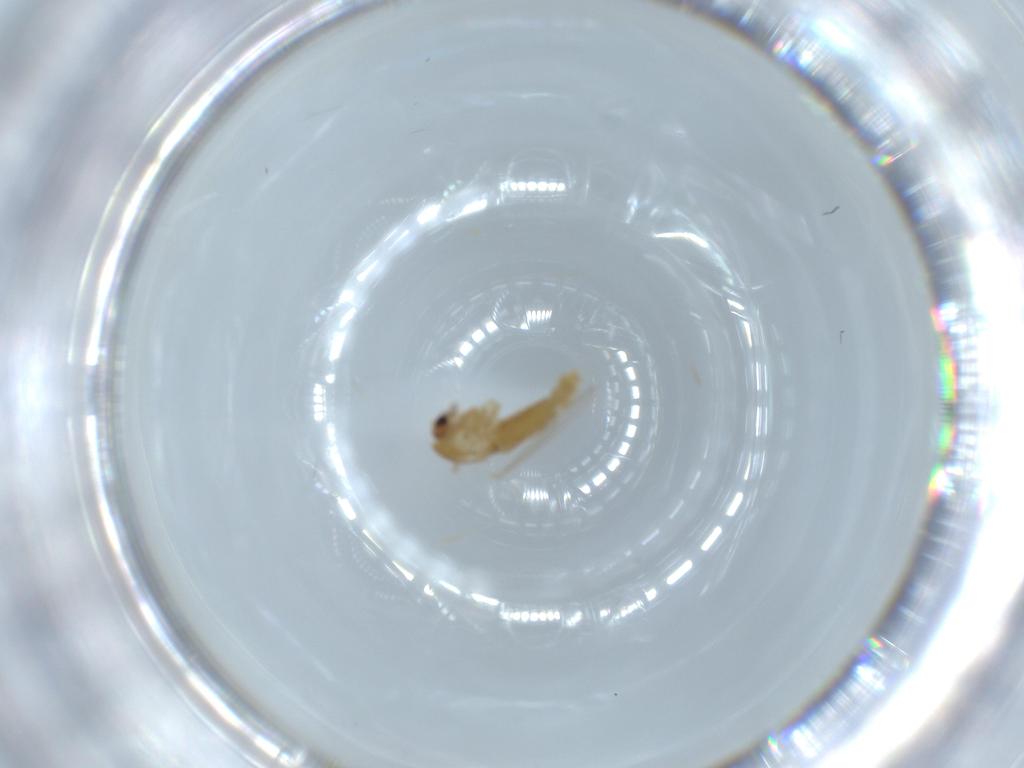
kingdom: Animalia
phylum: Arthropoda
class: Insecta
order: Diptera
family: Chironomidae
